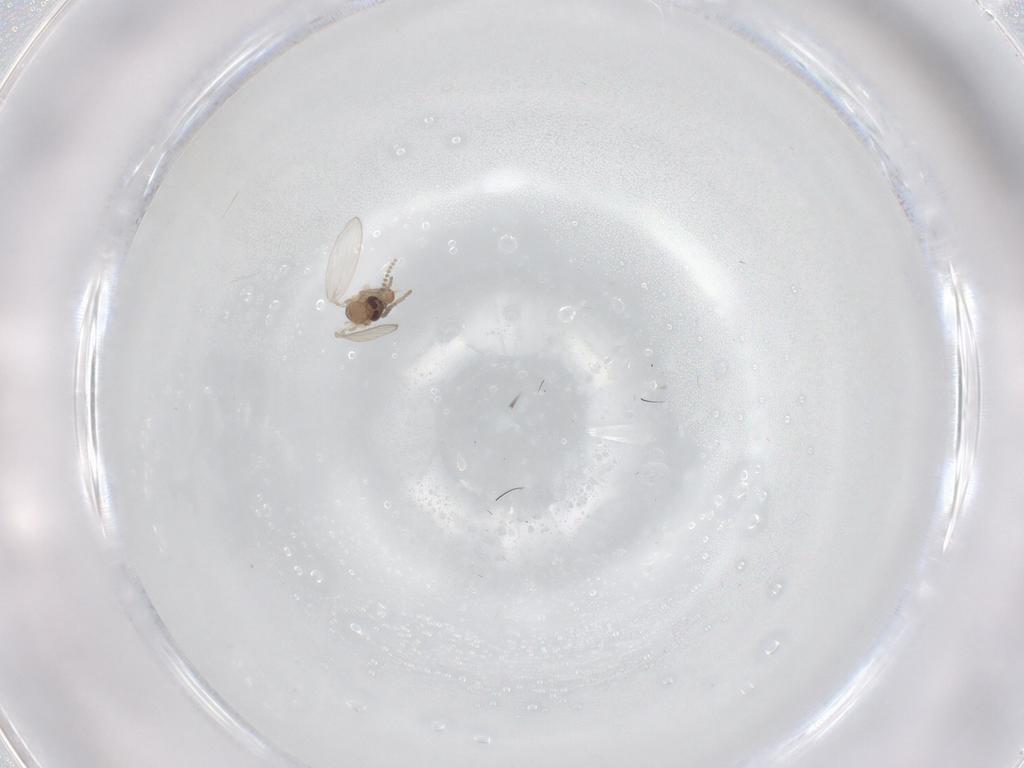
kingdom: Animalia
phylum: Arthropoda
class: Insecta
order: Diptera
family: Psychodidae
